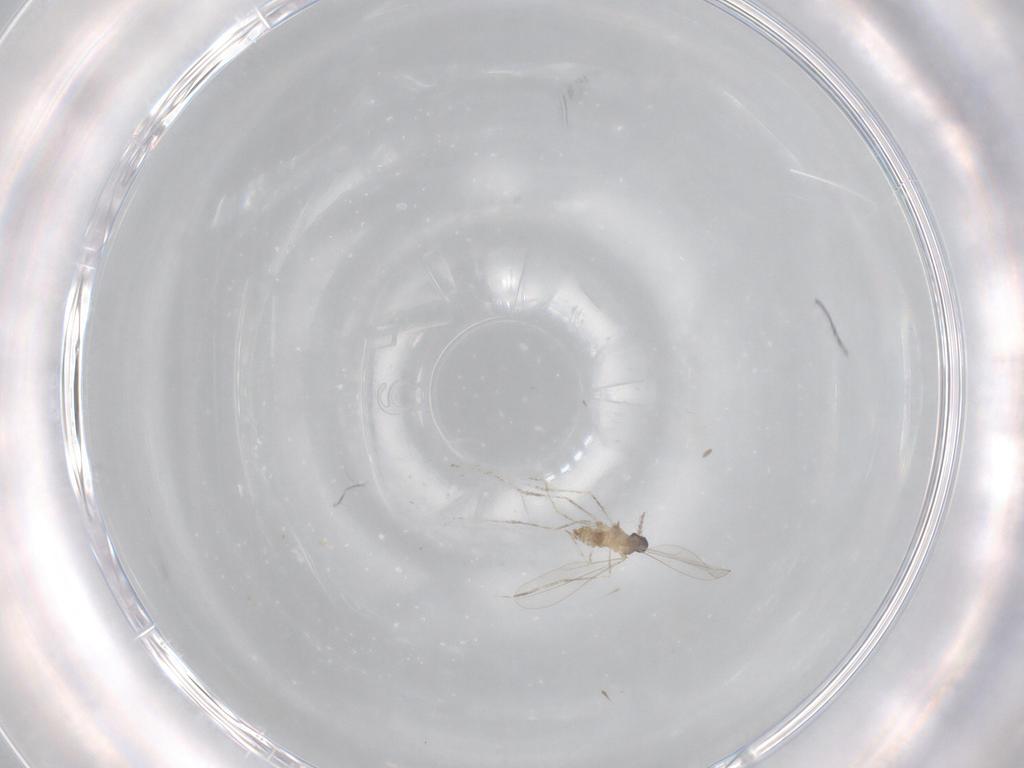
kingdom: Animalia
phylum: Arthropoda
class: Insecta
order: Diptera
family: Cecidomyiidae
